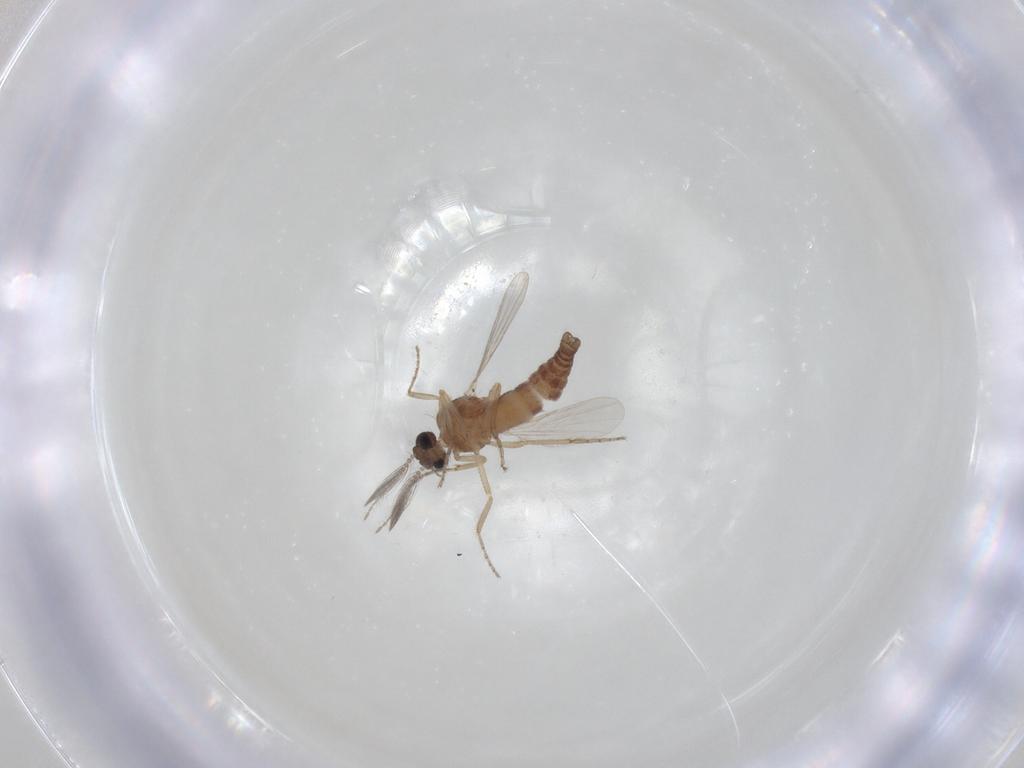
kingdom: Animalia
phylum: Arthropoda
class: Insecta
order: Diptera
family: Ceratopogonidae
